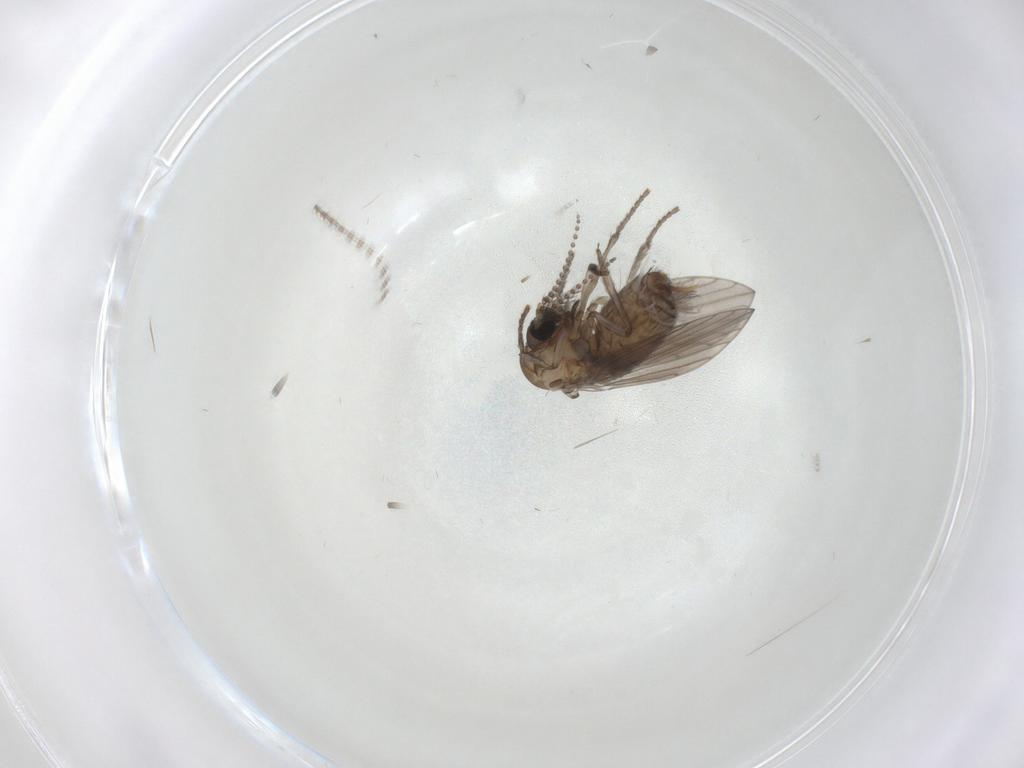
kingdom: Animalia
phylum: Arthropoda
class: Insecta
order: Diptera
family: Psychodidae
